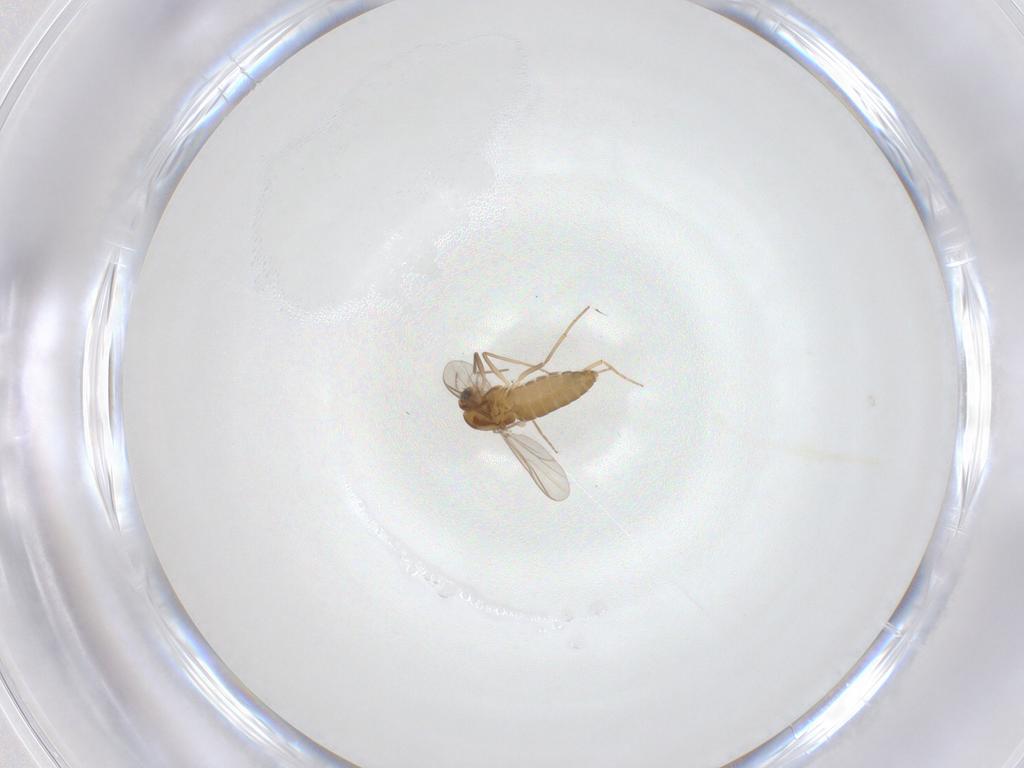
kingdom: Animalia
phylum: Arthropoda
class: Insecta
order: Diptera
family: Chironomidae
